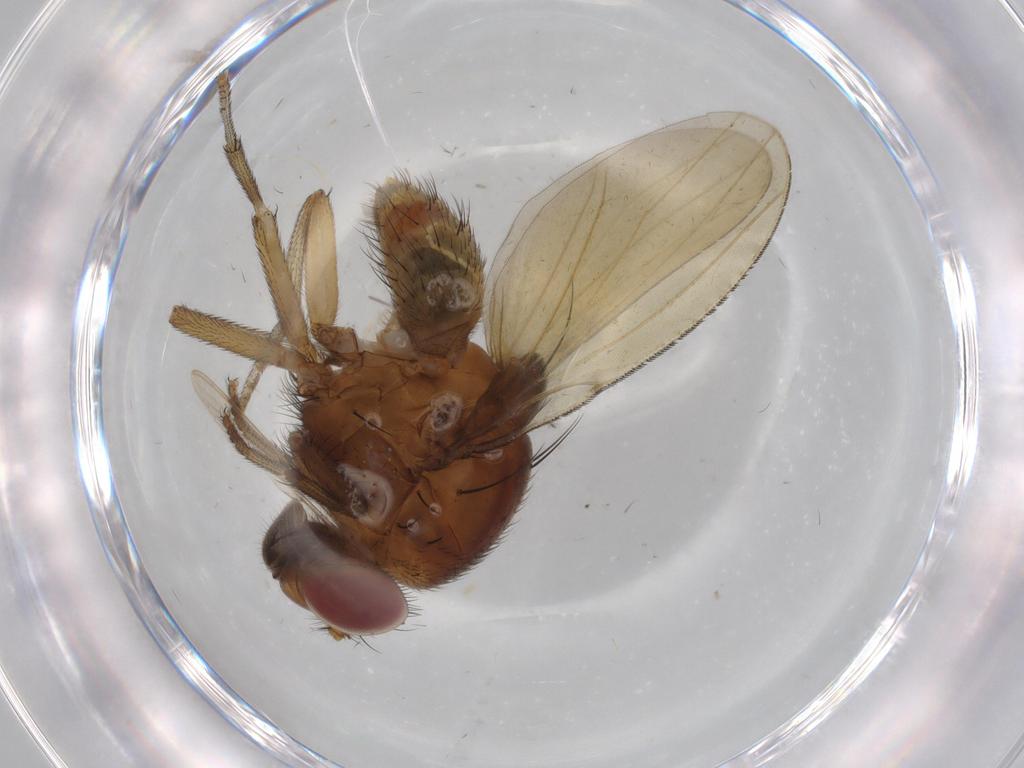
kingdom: Animalia
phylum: Arthropoda
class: Insecta
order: Diptera
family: Lauxaniidae
